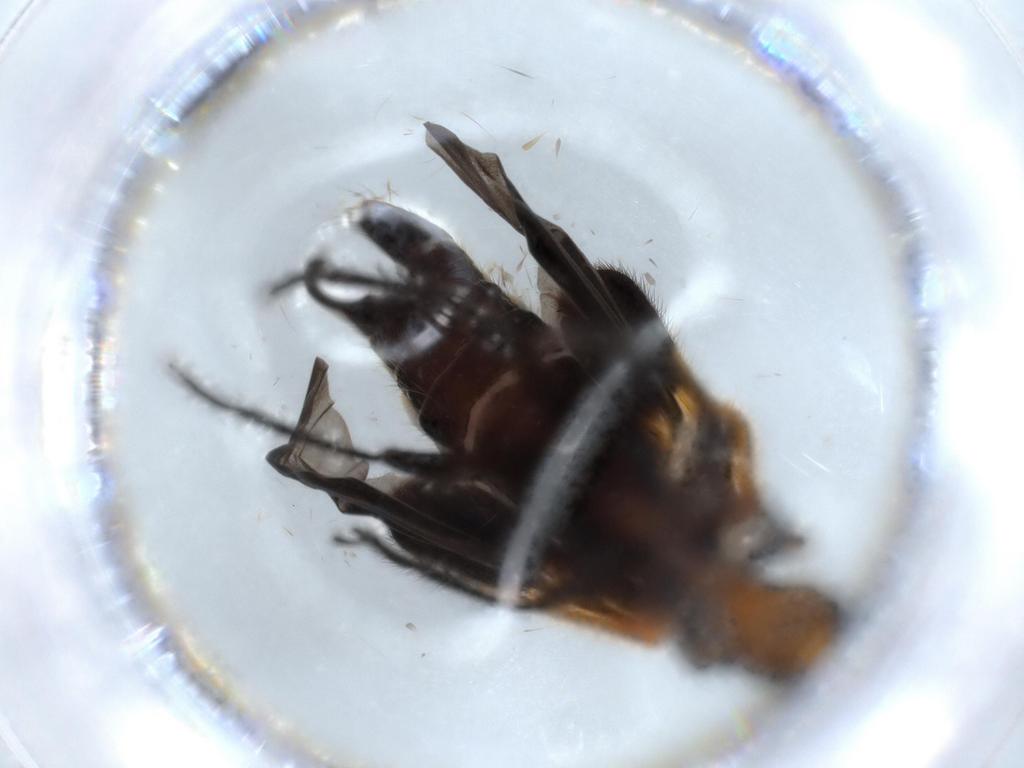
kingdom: Animalia
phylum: Arthropoda
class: Insecta
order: Coleoptera
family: Cleridae
